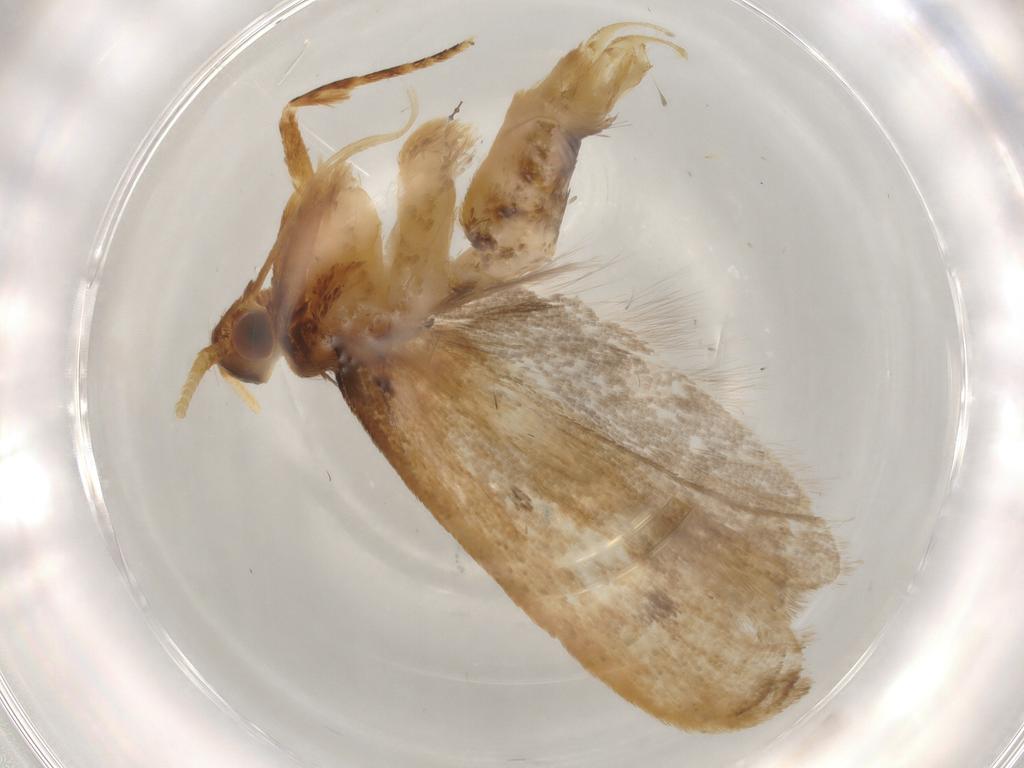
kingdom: Animalia
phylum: Arthropoda
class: Insecta
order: Lepidoptera
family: Lecithoceridae
